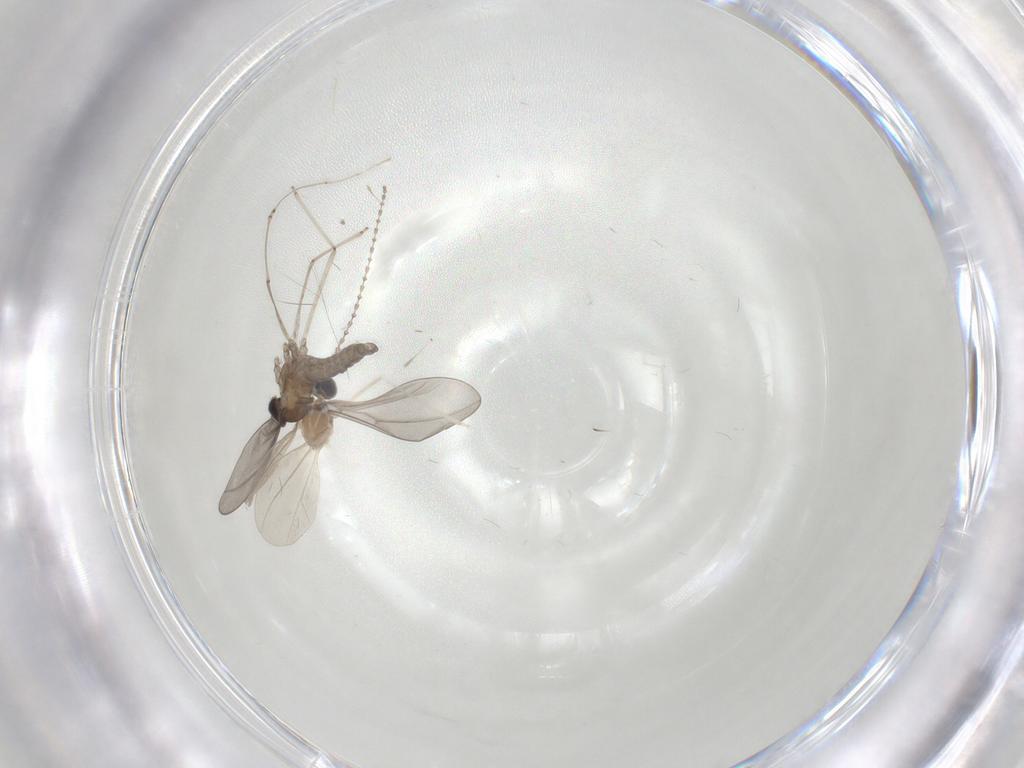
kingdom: Animalia
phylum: Arthropoda
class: Insecta
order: Diptera
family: Cecidomyiidae
